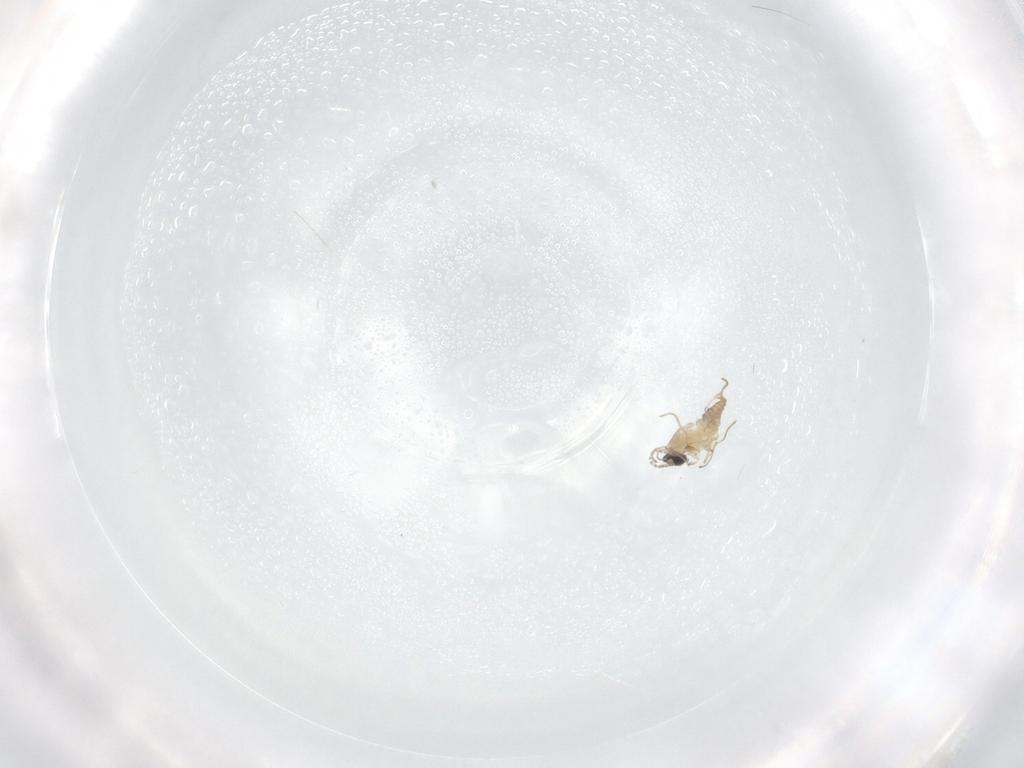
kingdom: Animalia
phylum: Arthropoda
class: Insecta
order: Diptera
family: Cecidomyiidae
